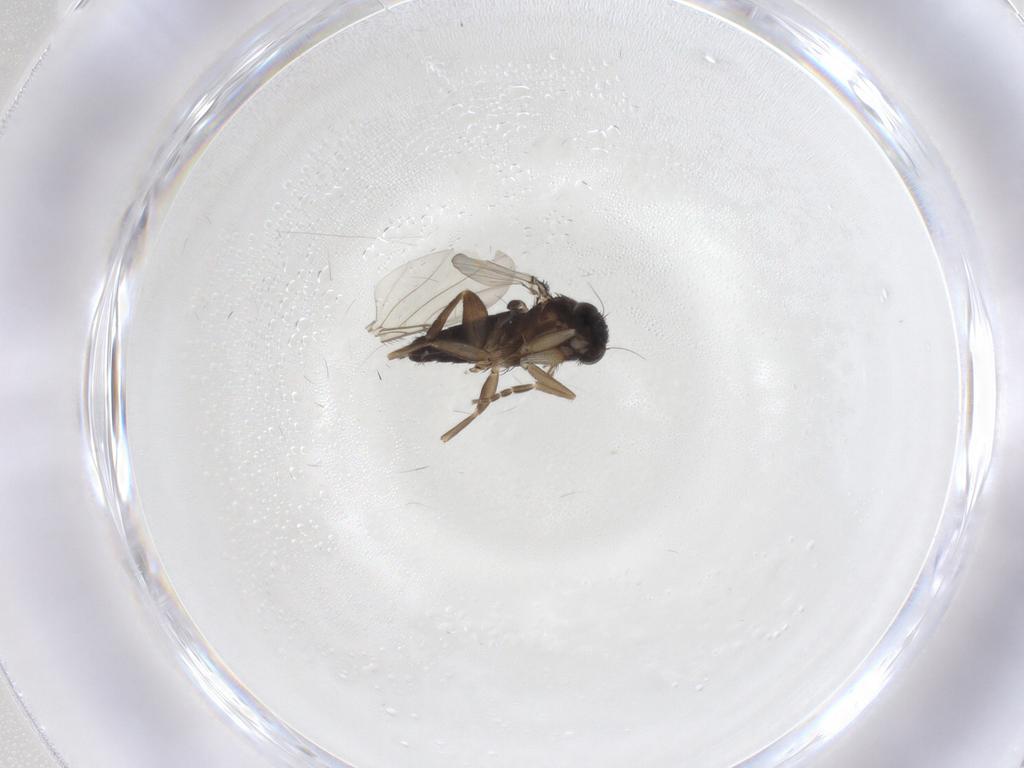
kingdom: Animalia
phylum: Arthropoda
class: Insecta
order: Diptera
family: Phoridae
